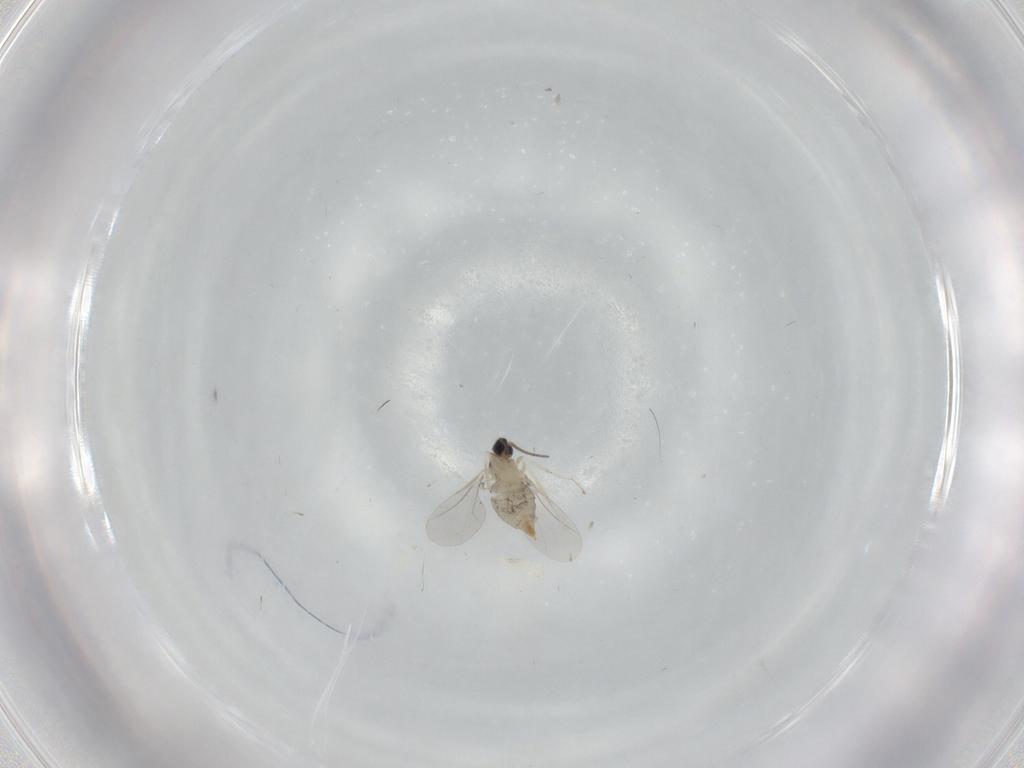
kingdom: Animalia
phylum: Arthropoda
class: Insecta
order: Diptera
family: Cecidomyiidae
